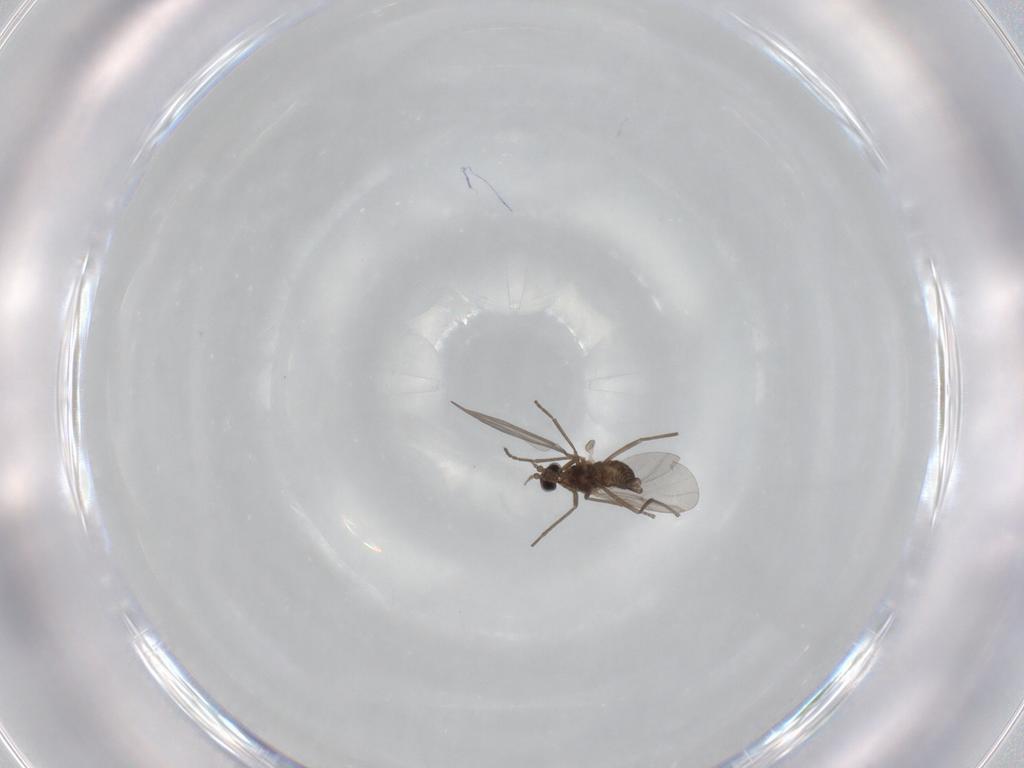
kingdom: Animalia
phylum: Arthropoda
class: Insecta
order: Diptera
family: Cecidomyiidae
